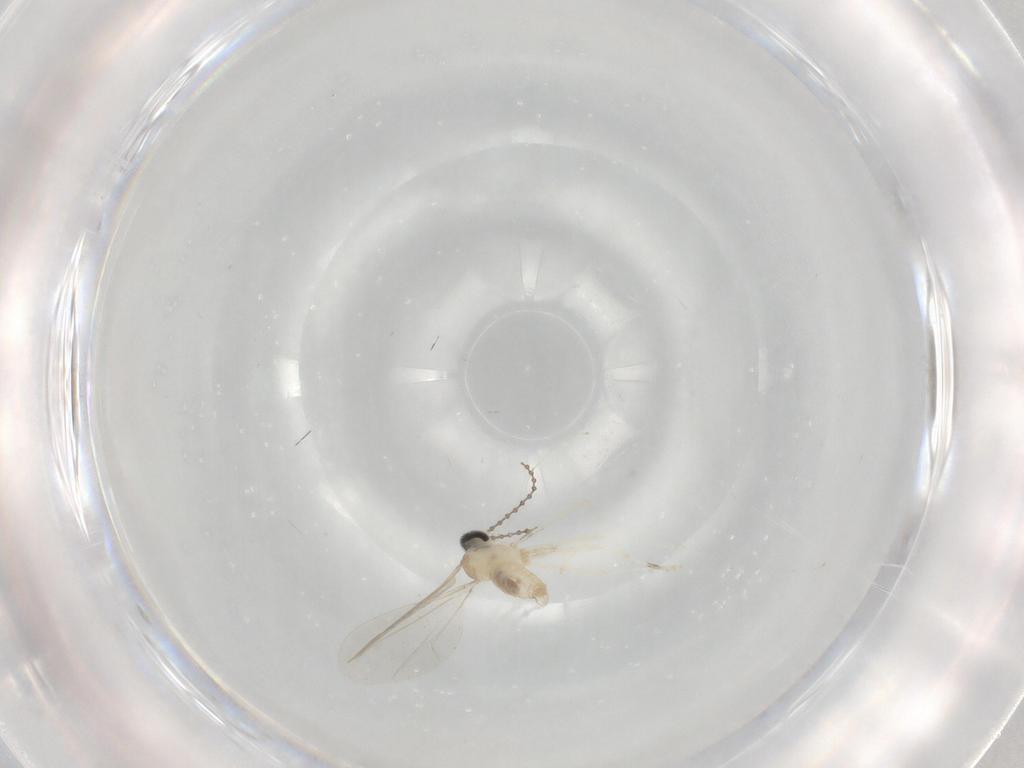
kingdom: Animalia
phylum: Arthropoda
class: Insecta
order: Diptera
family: Cecidomyiidae
